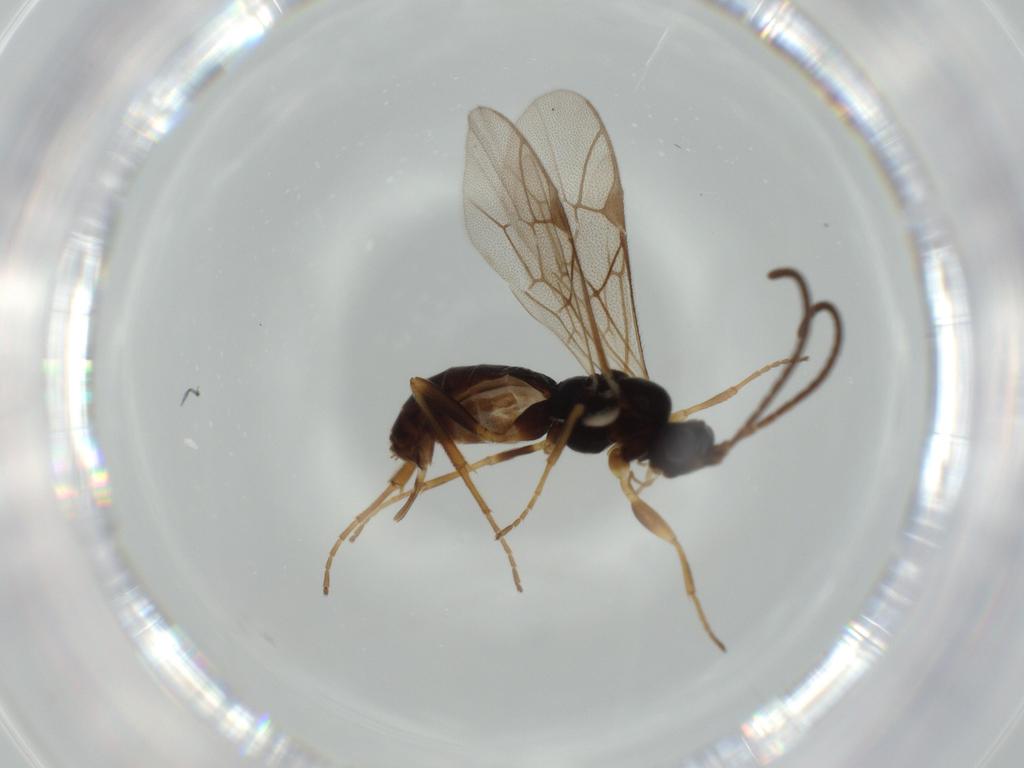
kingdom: Animalia
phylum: Arthropoda
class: Insecta
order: Hymenoptera
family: Ichneumonidae
